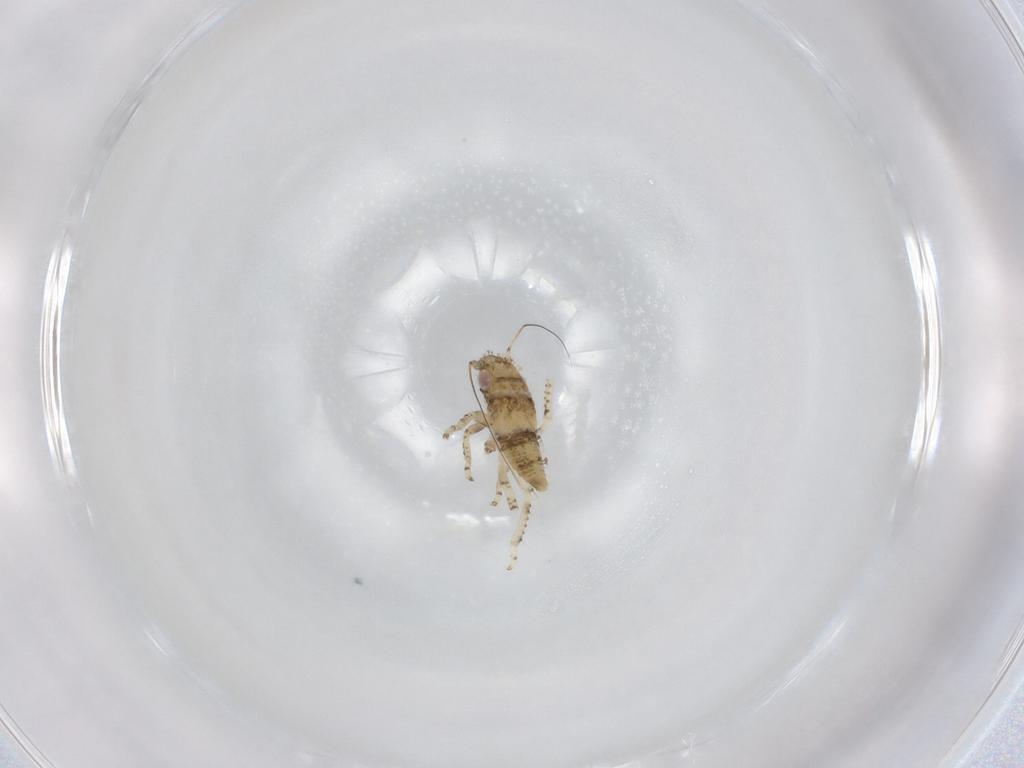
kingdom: Animalia
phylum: Arthropoda
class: Insecta
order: Hemiptera
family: Cicadellidae
